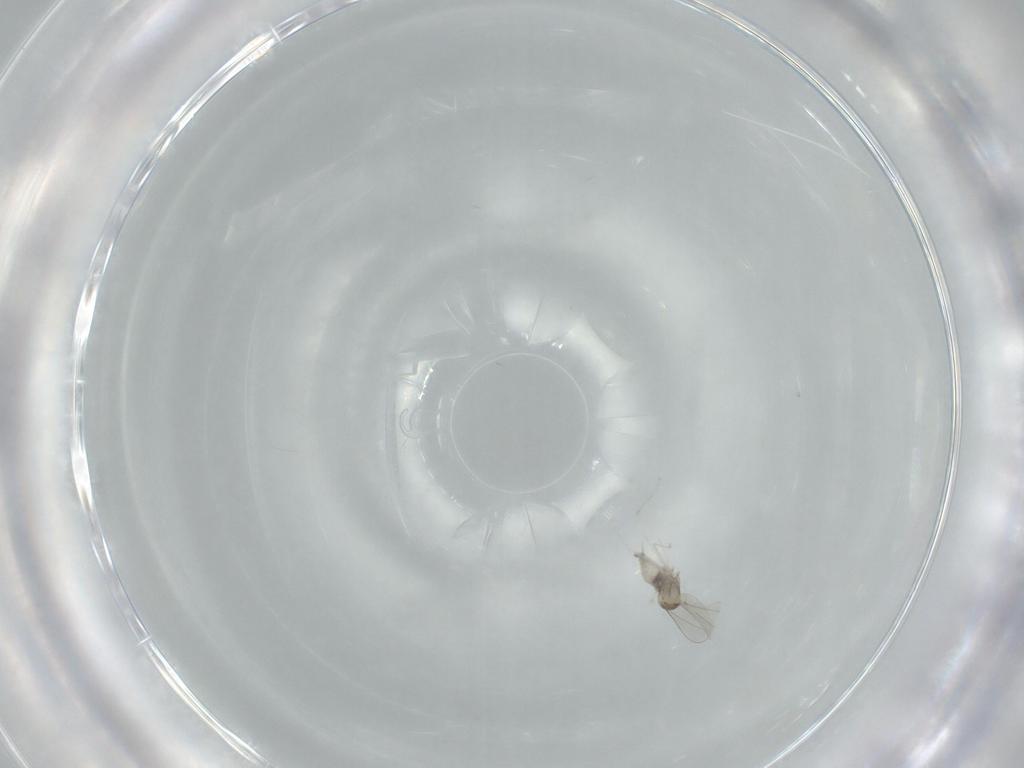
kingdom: Animalia
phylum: Arthropoda
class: Insecta
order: Diptera
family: Cecidomyiidae
